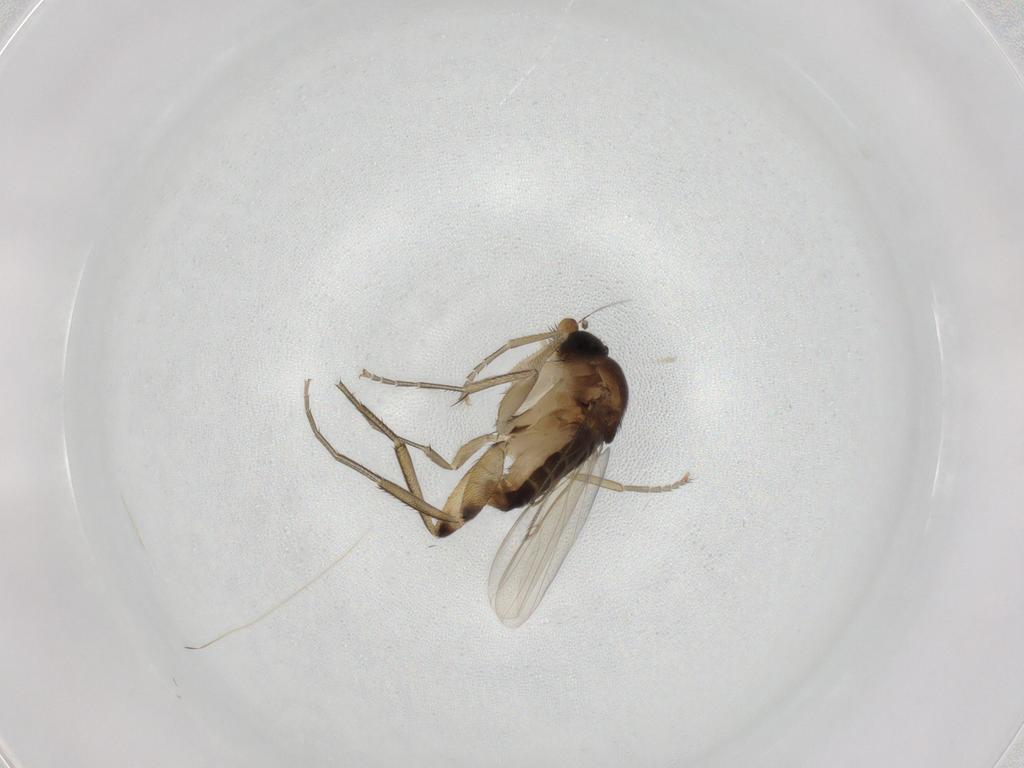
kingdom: Animalia
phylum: Arthropoda
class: Insecta
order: Diptera
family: Phoridae
